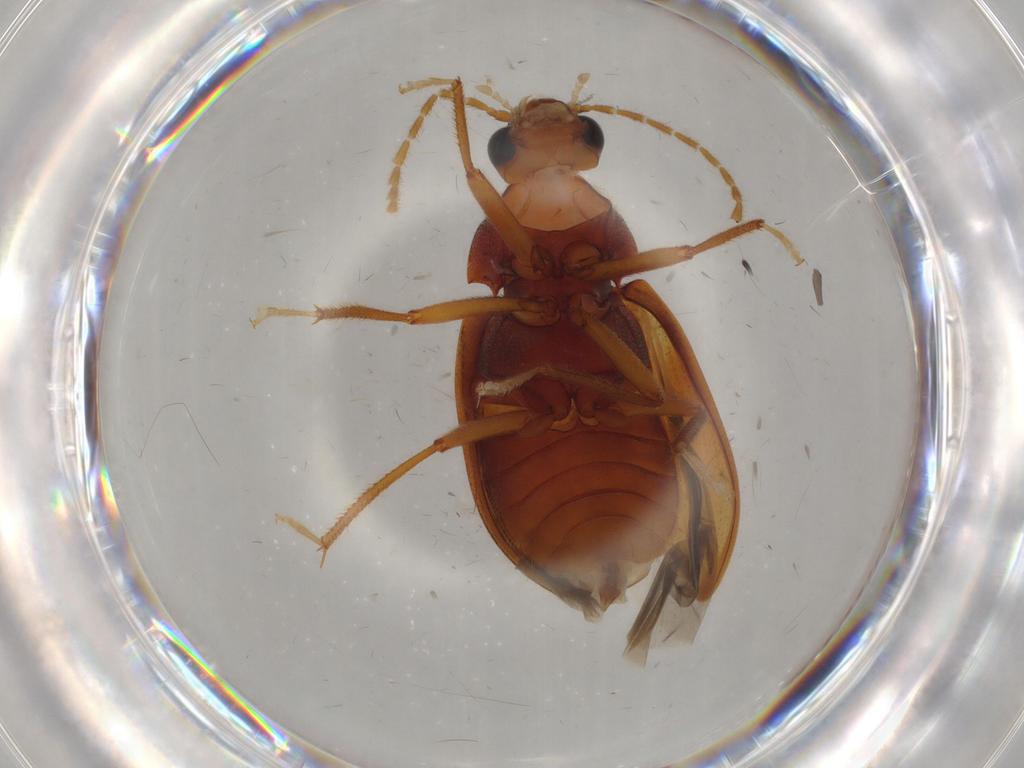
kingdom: Animalia
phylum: Arthropoda
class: Insecta
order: Coleoptera
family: Ptilodactylidae
